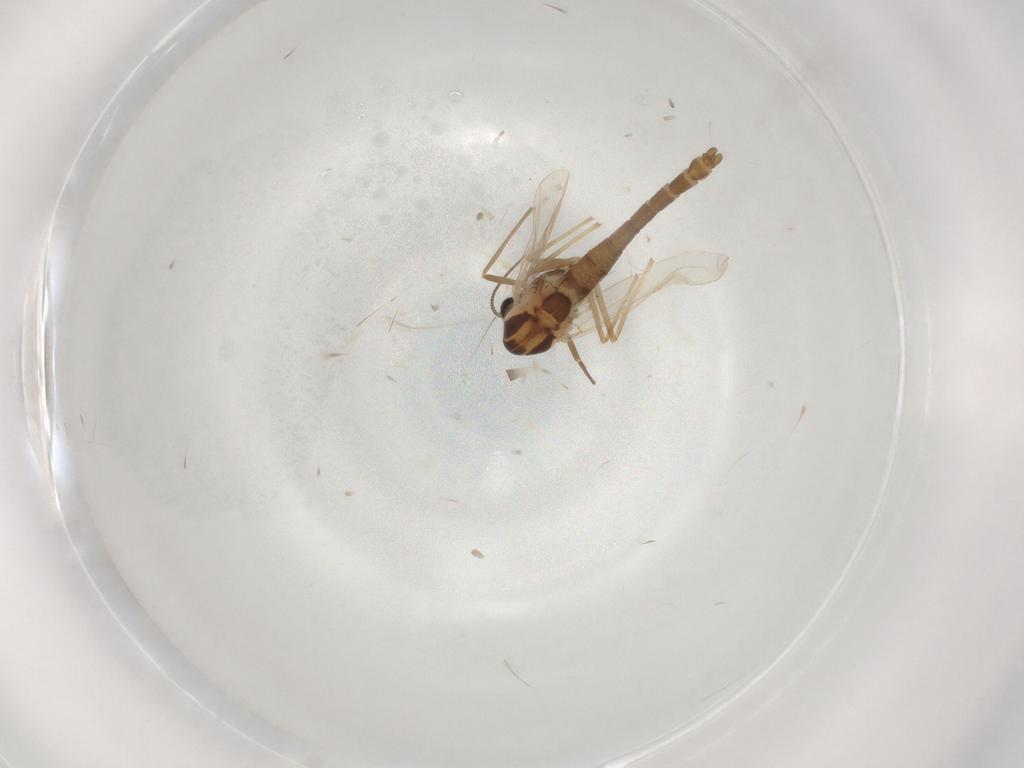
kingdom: Animalia
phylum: Arthropoda
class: Insecta
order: Diptera
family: Chironomidae
